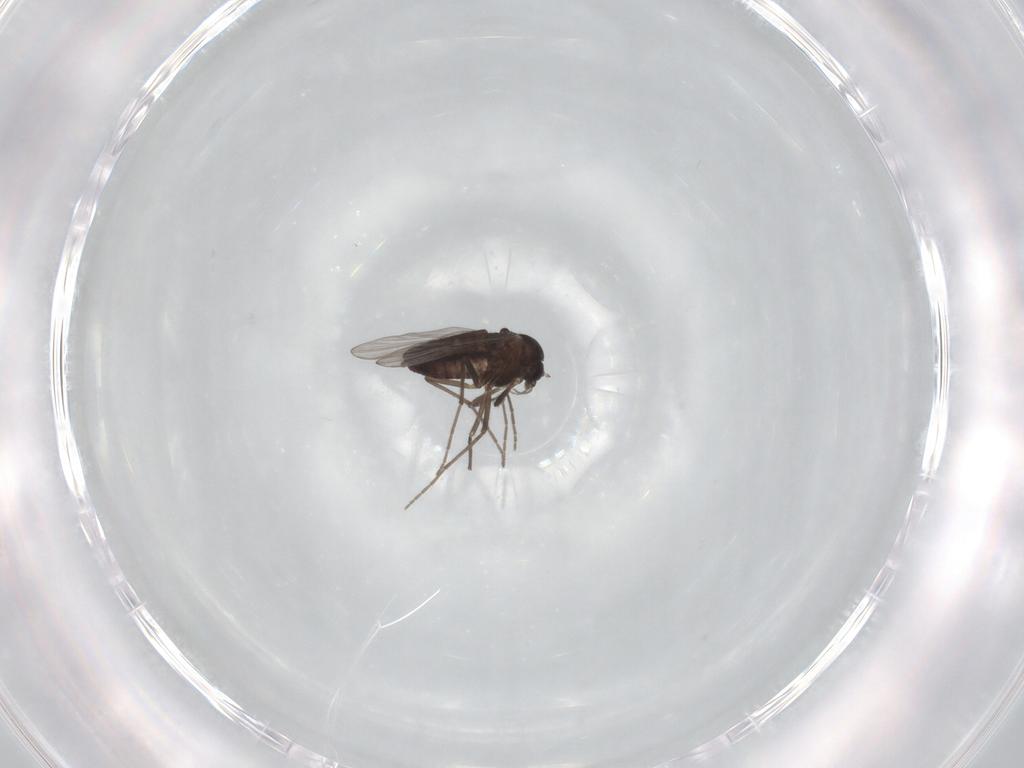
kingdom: Animalia
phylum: Arthropoda
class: Insecta
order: Diptera
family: Chironomidae
